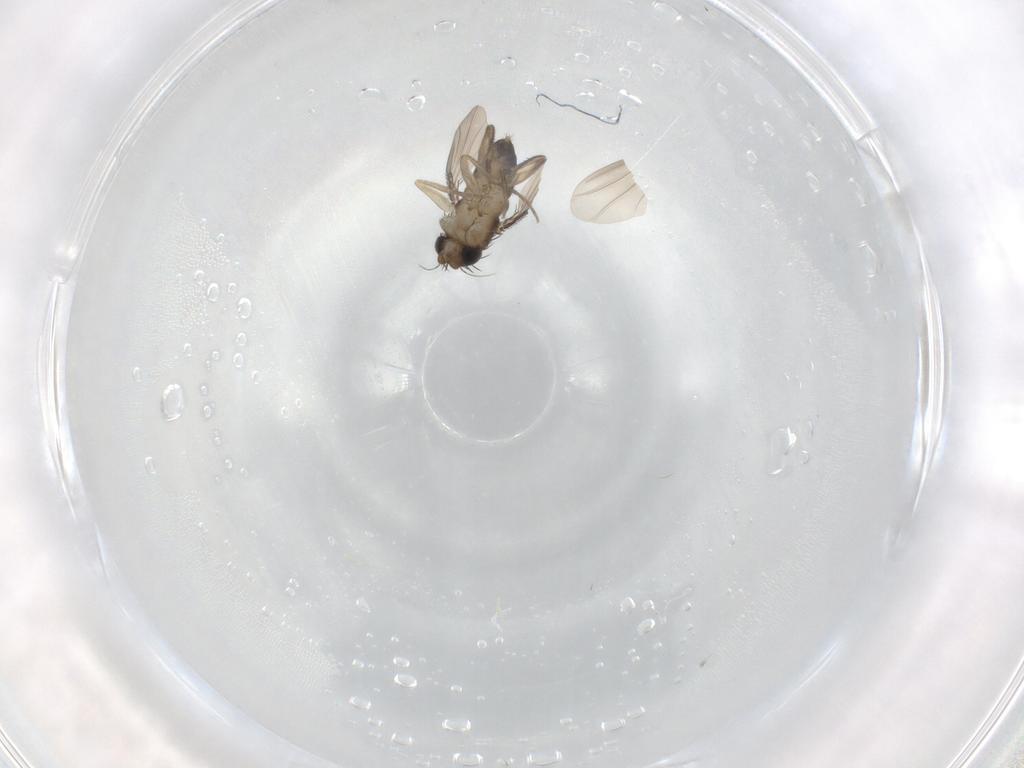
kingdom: Animalia
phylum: Arthropoda
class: Insecta
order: Diptera
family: Phoridae
